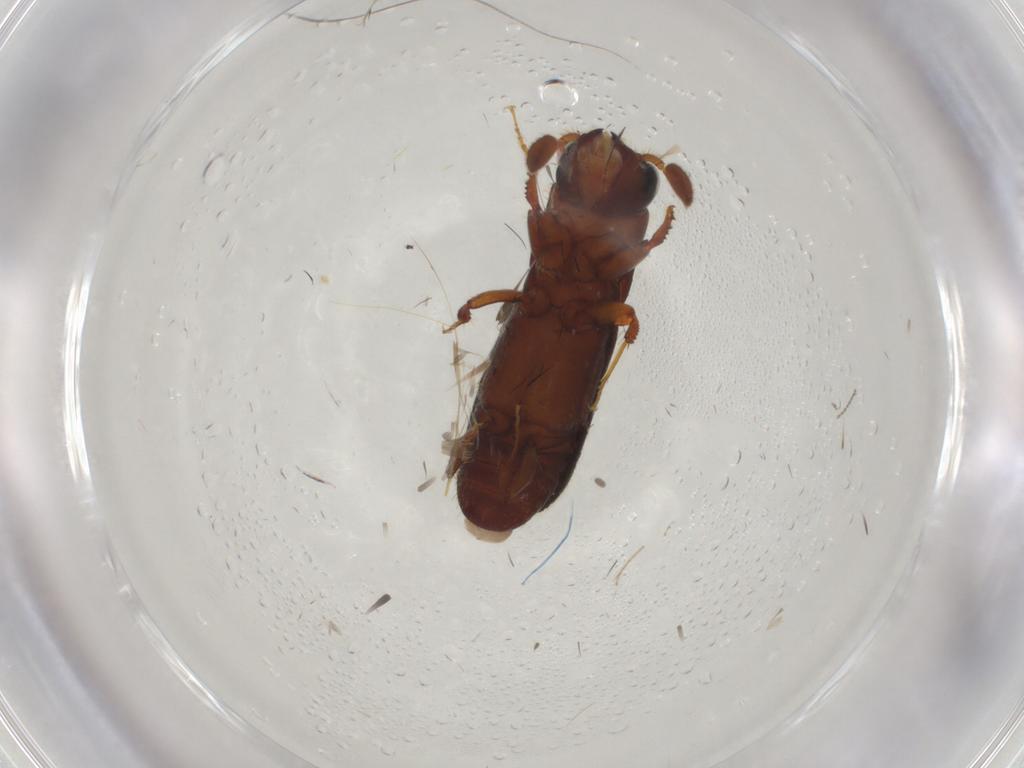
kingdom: Animalia
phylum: Arthropoda
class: Insecta
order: Coleoptera
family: Curculionidae
